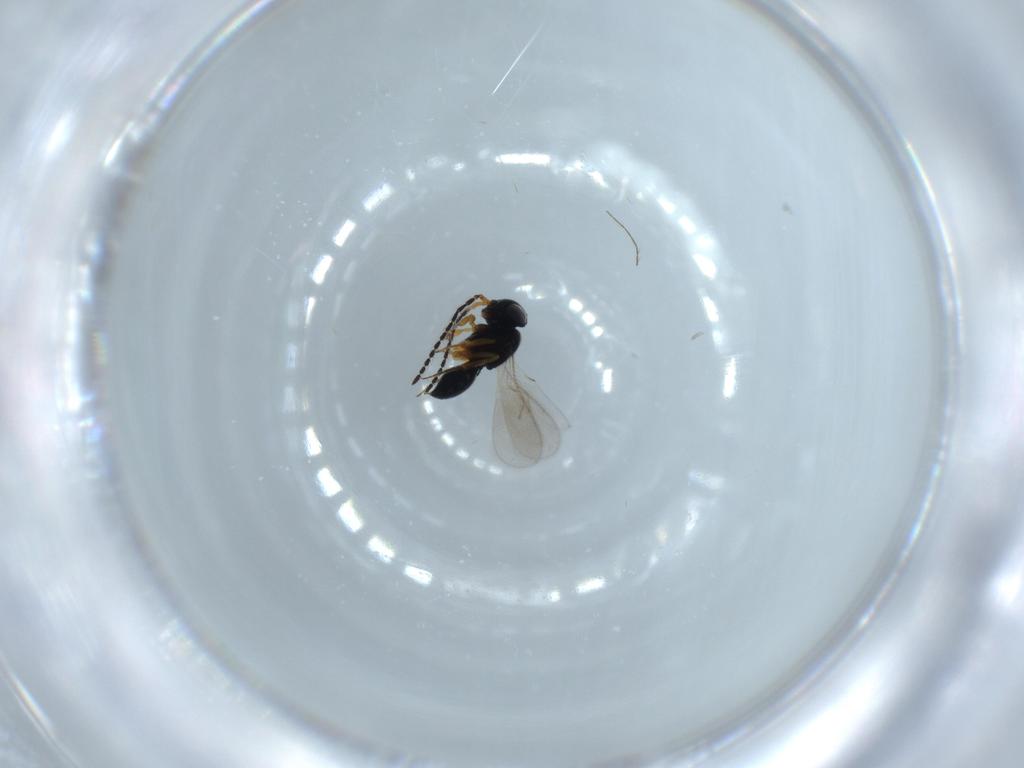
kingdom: Animalia
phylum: Arthropoda
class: Insecta
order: Hymenoptera
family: Scelionidae
